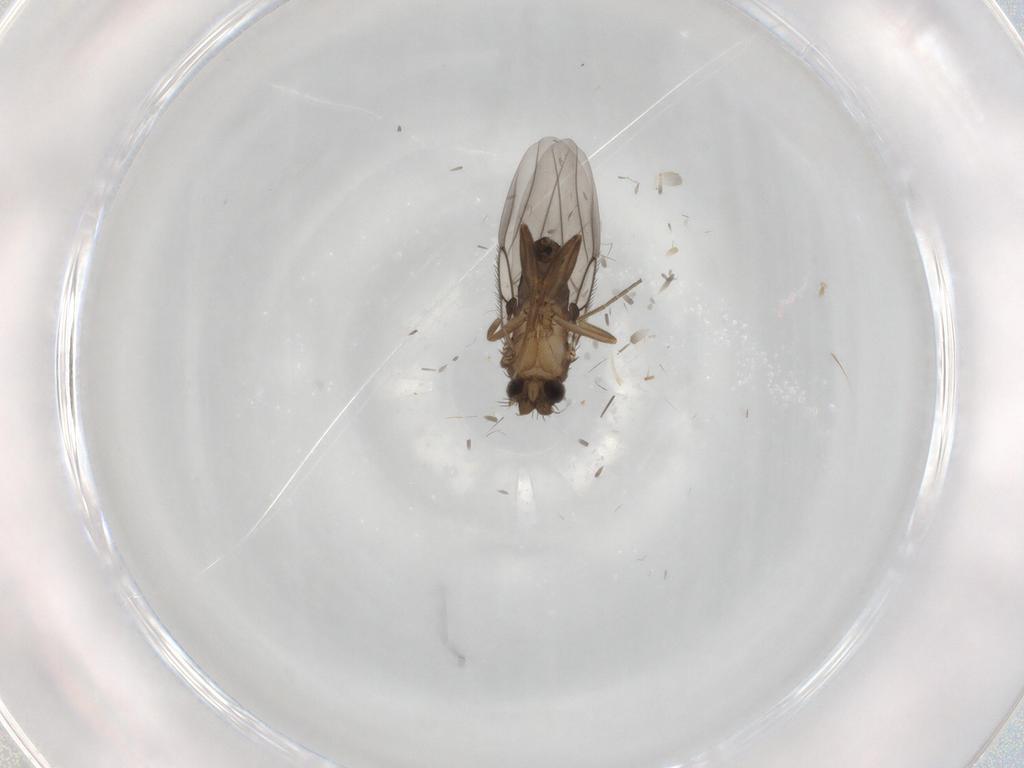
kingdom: Animalia
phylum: Arthropoda
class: Insecta
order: Diptera
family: Phoridae
